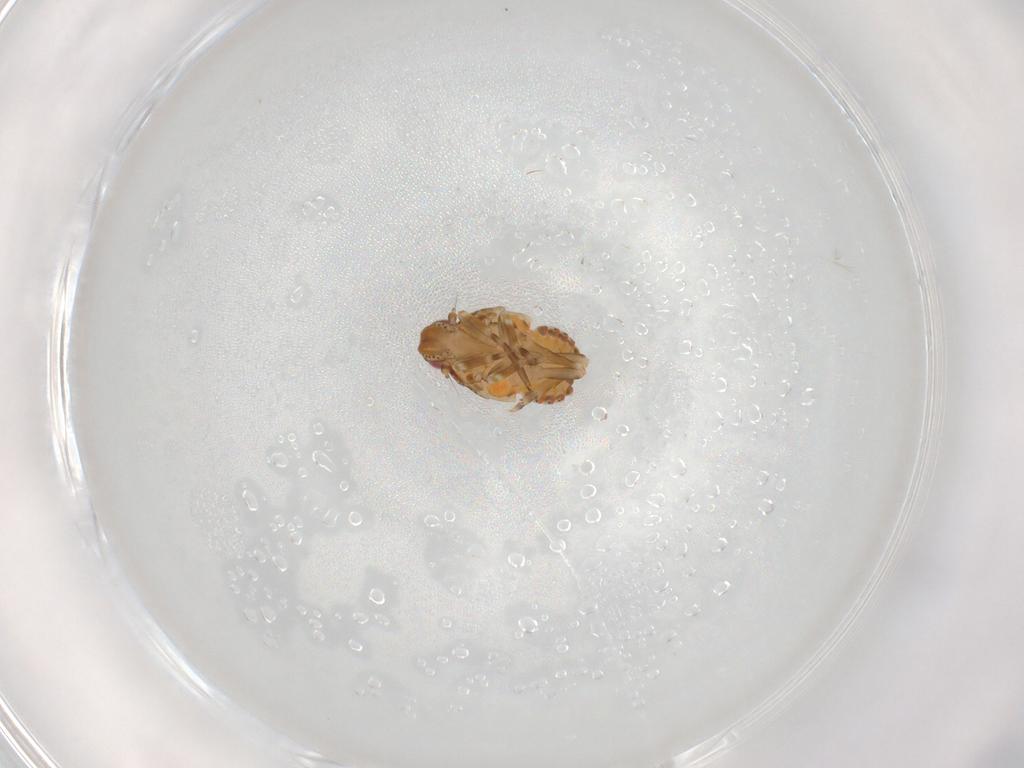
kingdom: Animalia
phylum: Arthropoda
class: Insecta
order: Hemiptera
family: Flatidae
